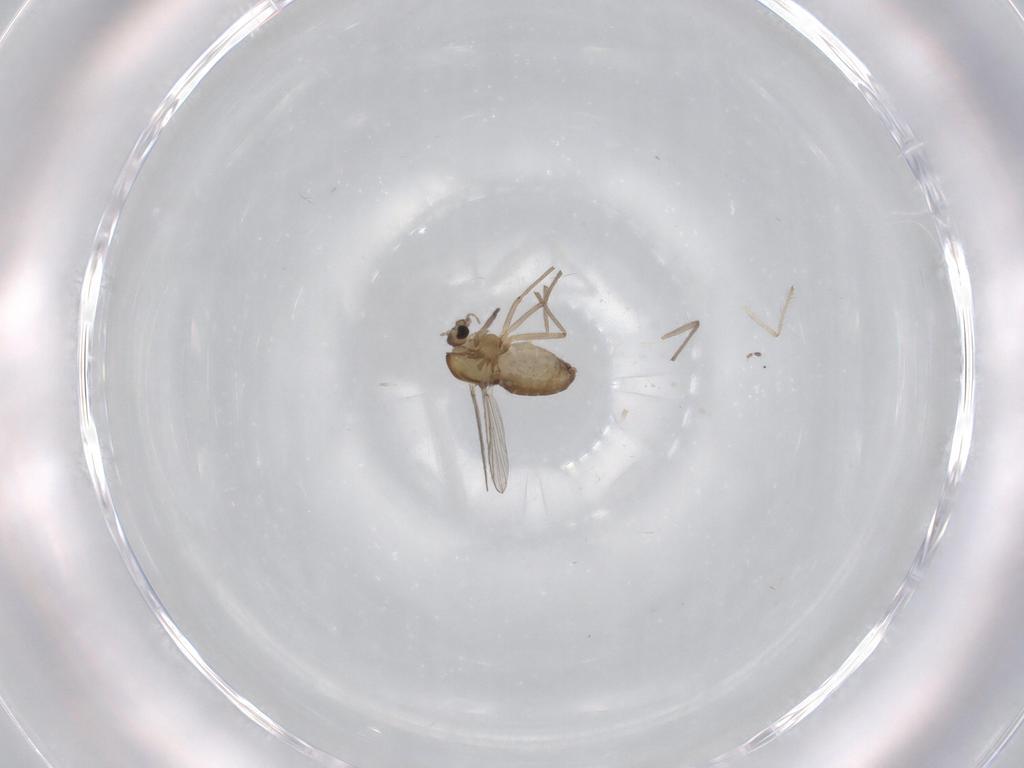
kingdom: Animalia
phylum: Arthropoda
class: Insecta
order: Diptera
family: Chironomidae
